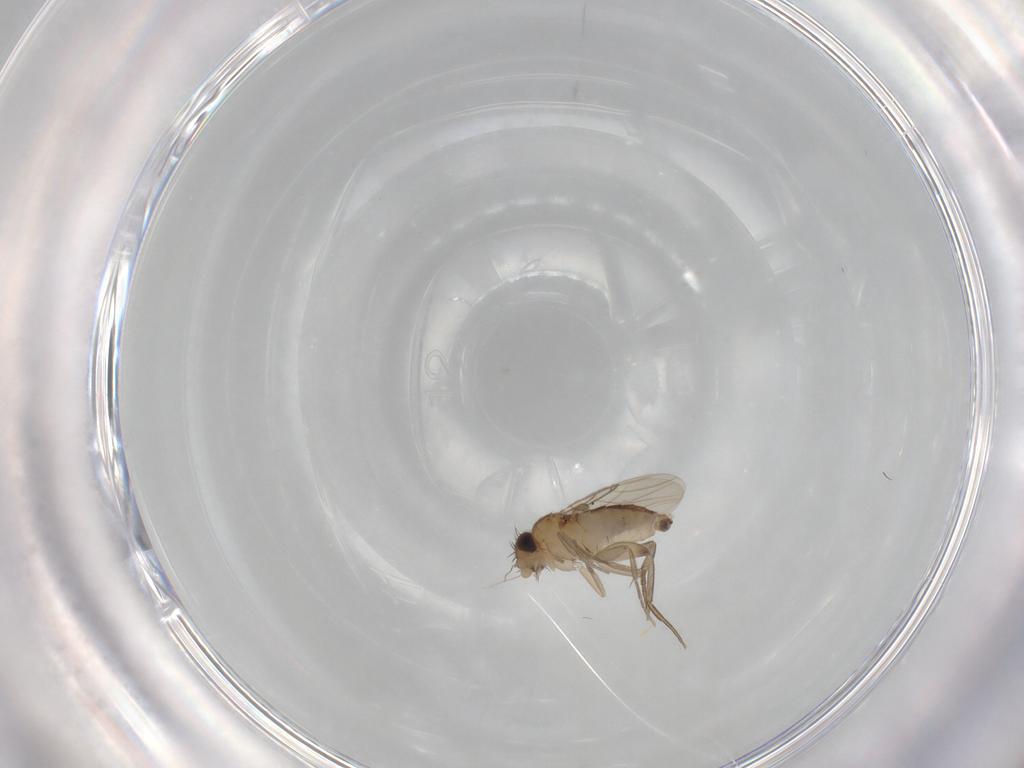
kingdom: Animalia
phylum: Arthropoda
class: Insecta
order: Diptera
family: Phoridae
